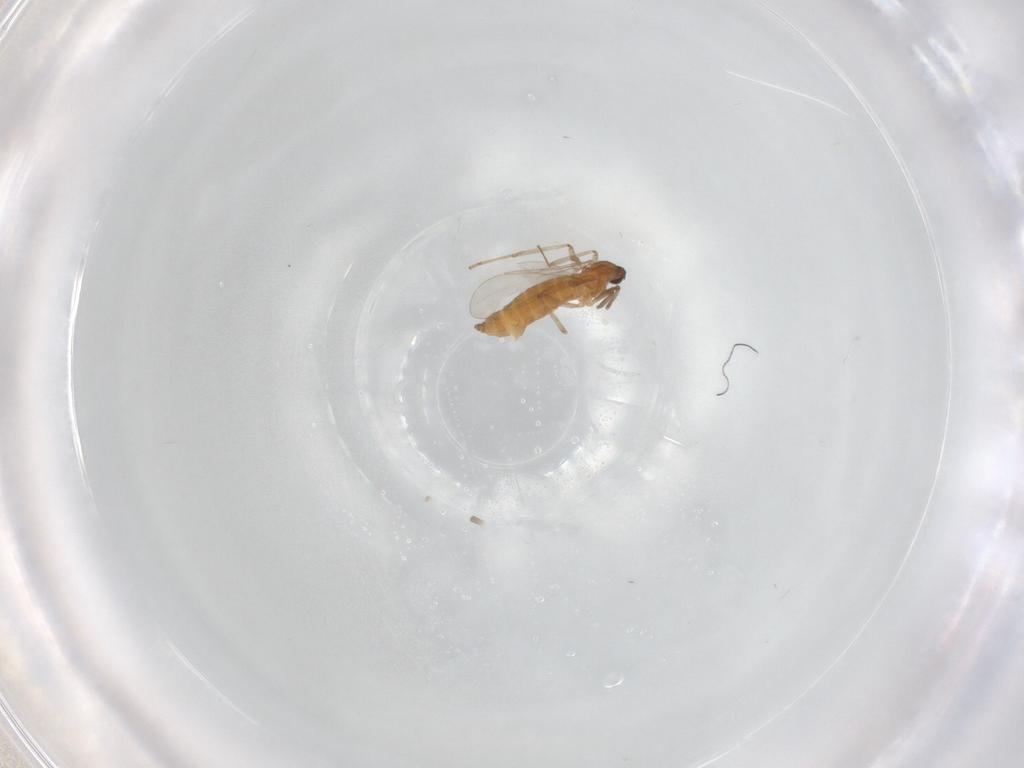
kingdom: Animalia
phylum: Arthropoda
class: Insecta
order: Diptera
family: Cecidomyiidae
